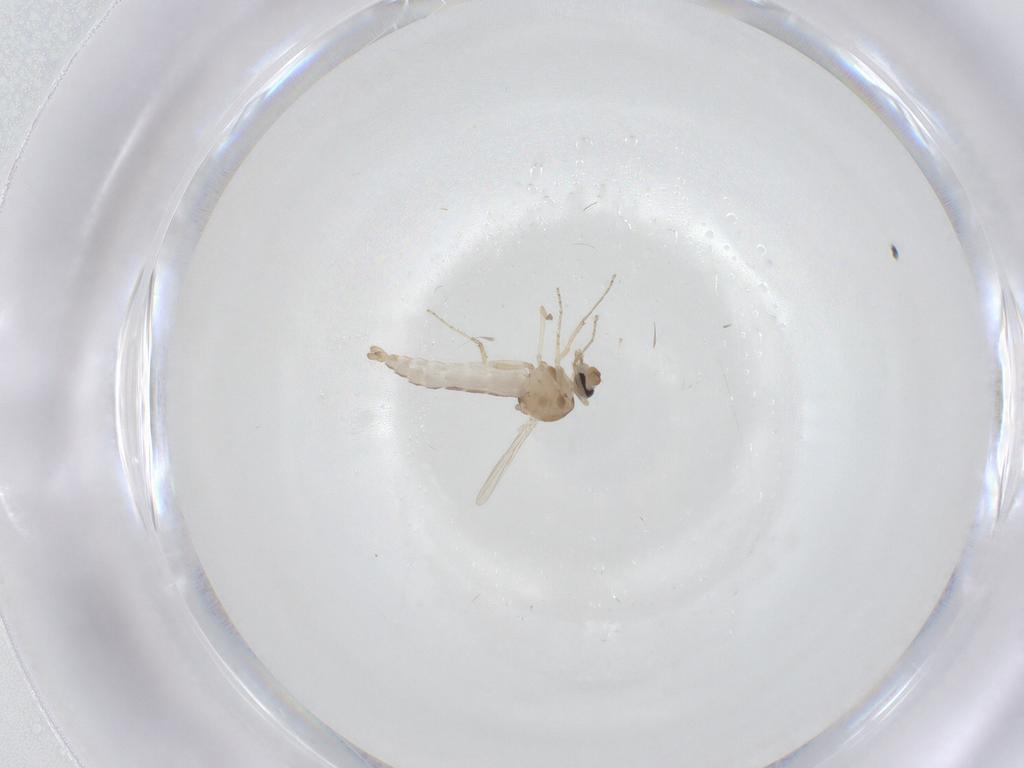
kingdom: Animalia
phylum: Arthropoda
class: Insecta
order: Diptera
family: Ceratopogonidae
